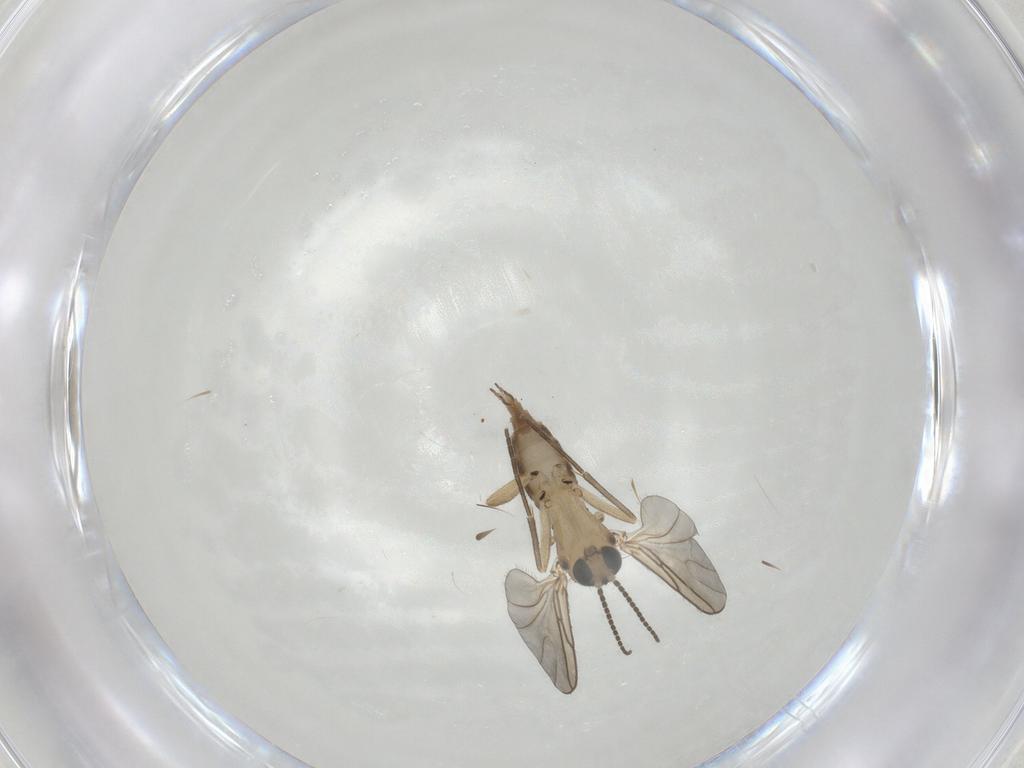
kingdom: Animalia
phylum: Arthropoda
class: Insecta
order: Diptera
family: Sciaridae
